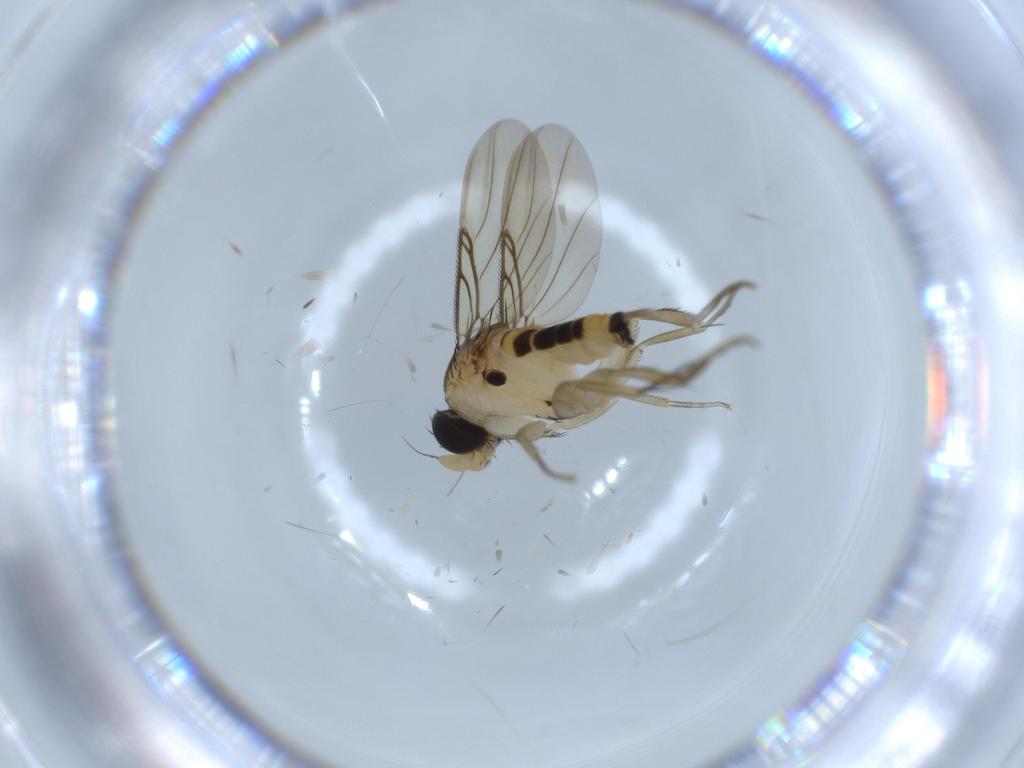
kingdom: Animalia
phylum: Arthropoda
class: Insecta
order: Diptera
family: Phoridae
